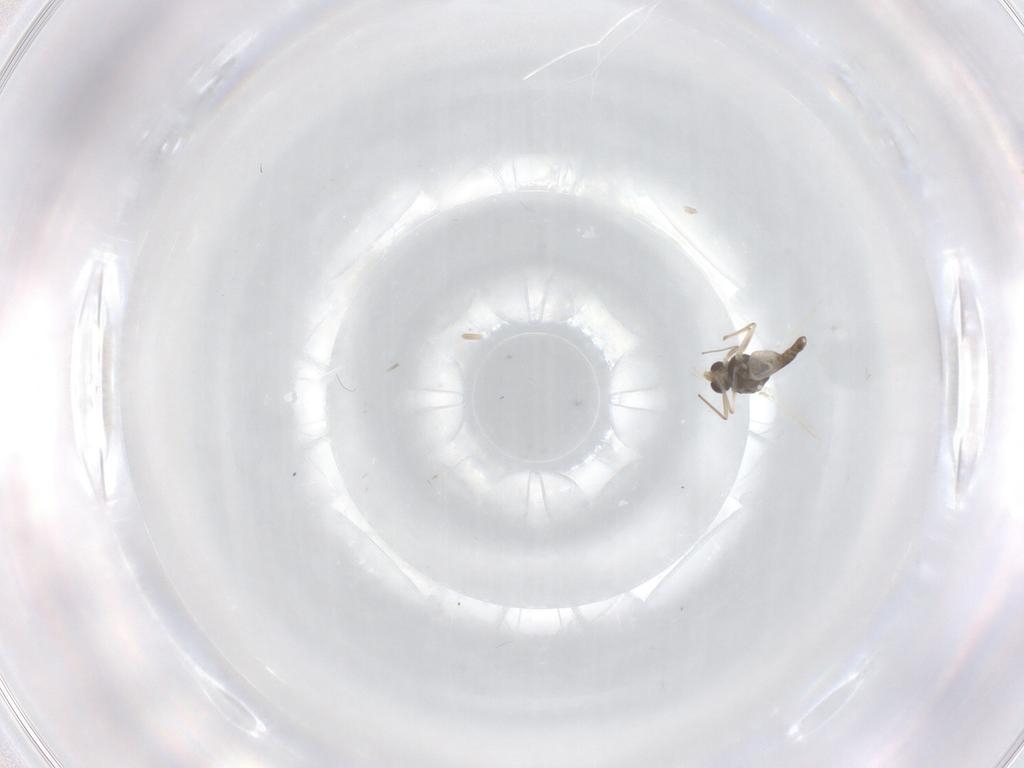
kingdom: Animalia
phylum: Arthropoda
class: Insecta
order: Diptera
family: Chironomidae
